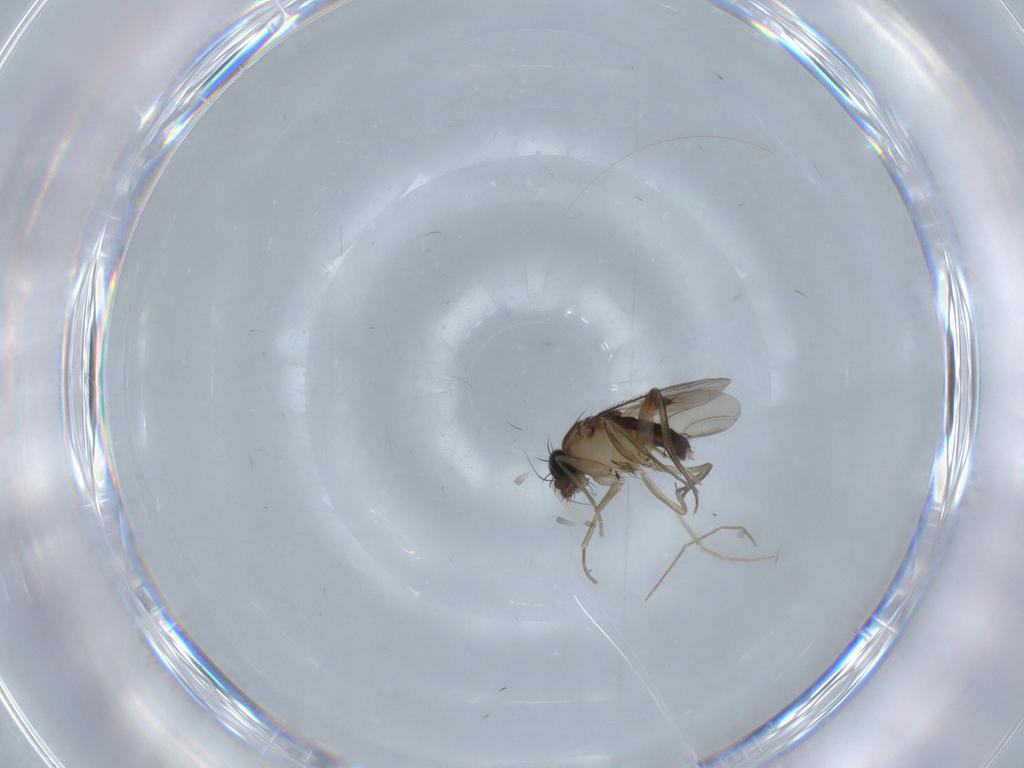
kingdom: Animalia
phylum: Arthropoda
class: Insecta
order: Diptera
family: Phoridae
